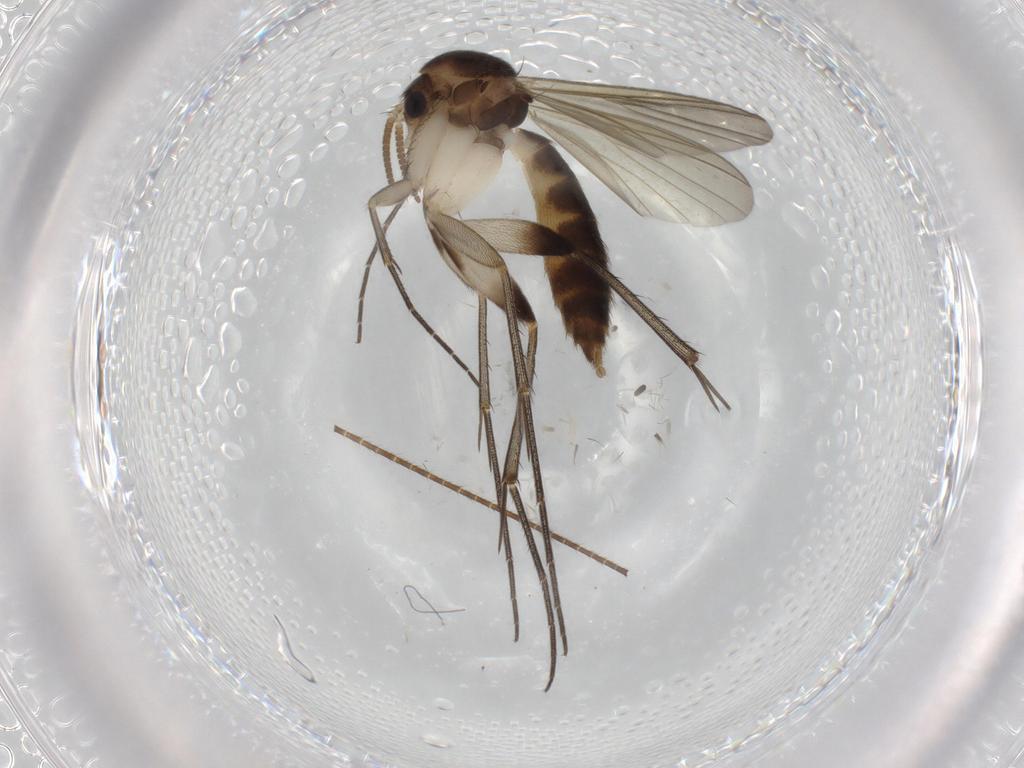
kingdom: Animalia
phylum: Arthropoda
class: Insecta
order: Diptera
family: Mycetophilidae
